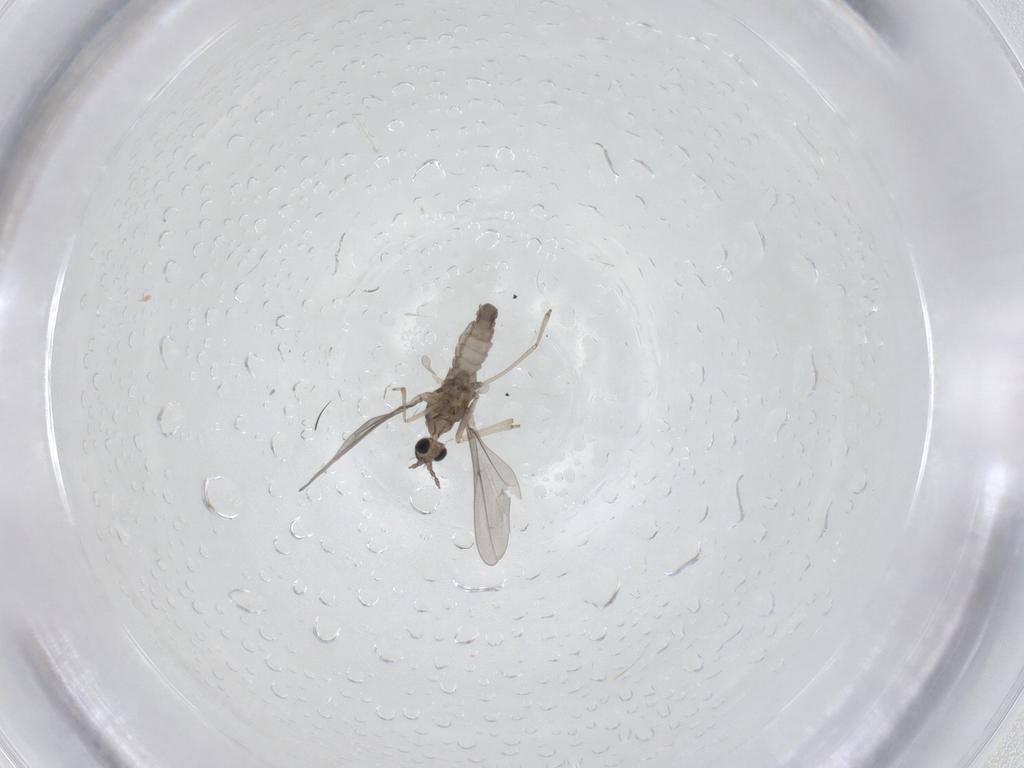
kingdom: Animalia
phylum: Arthropoda
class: Insecta
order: Diptera
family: Cecidomyiidae
